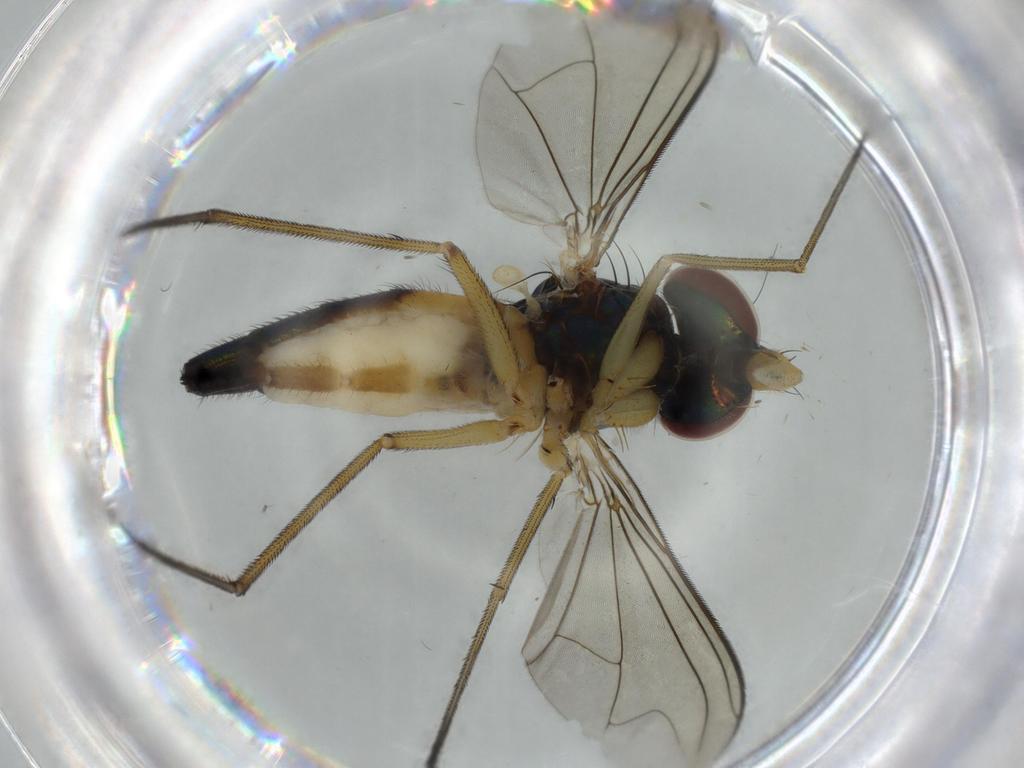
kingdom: Animalia
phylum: Arthropoda
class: Insecta
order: Diptera
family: Dolichopodidae
